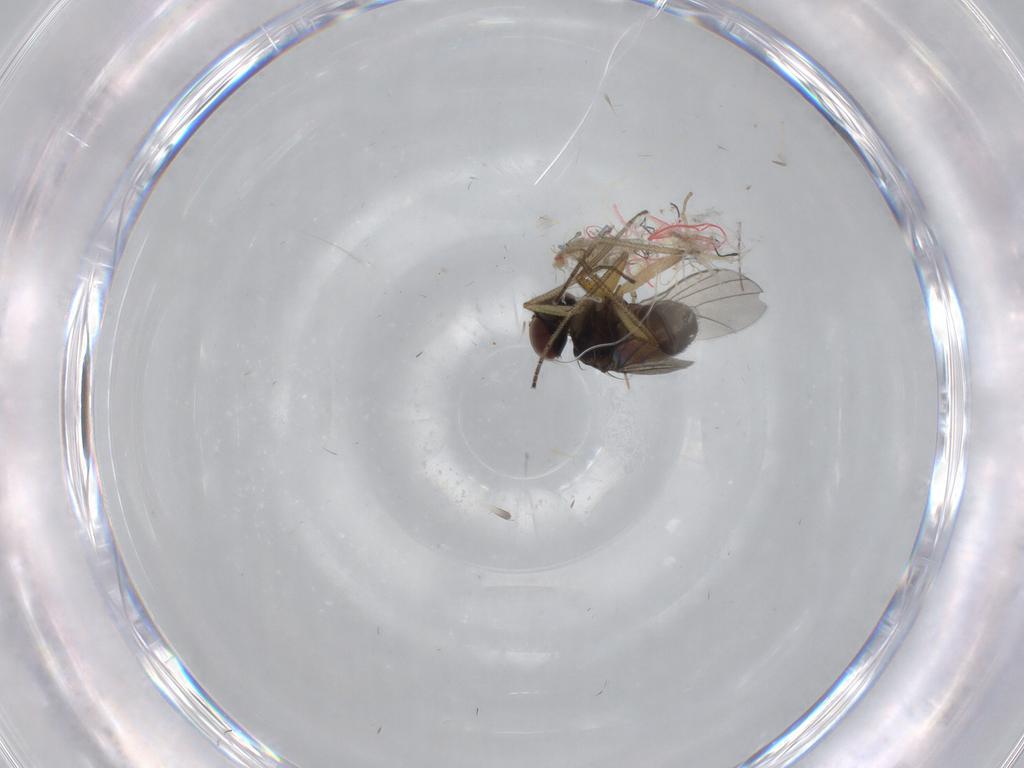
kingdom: Animalia
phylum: Arthropoda
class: Insecta
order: Diptera
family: Dolichopodidae
